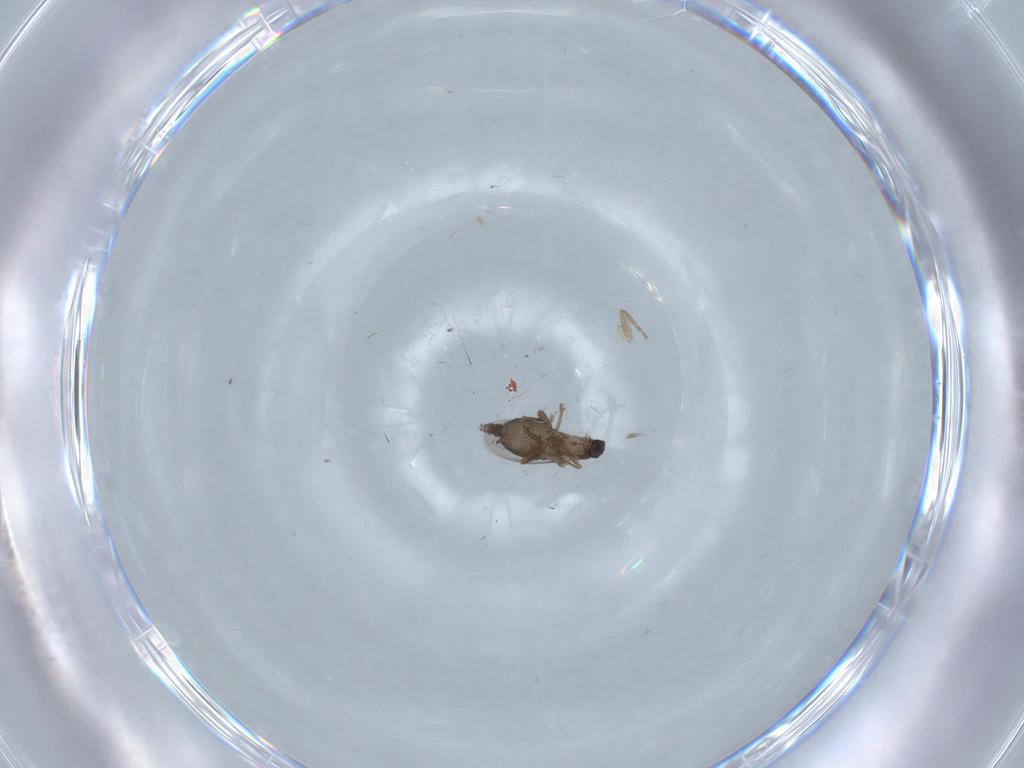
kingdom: Animalia
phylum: Arthropoda
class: Insecta
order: Diptera
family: Phoridae
